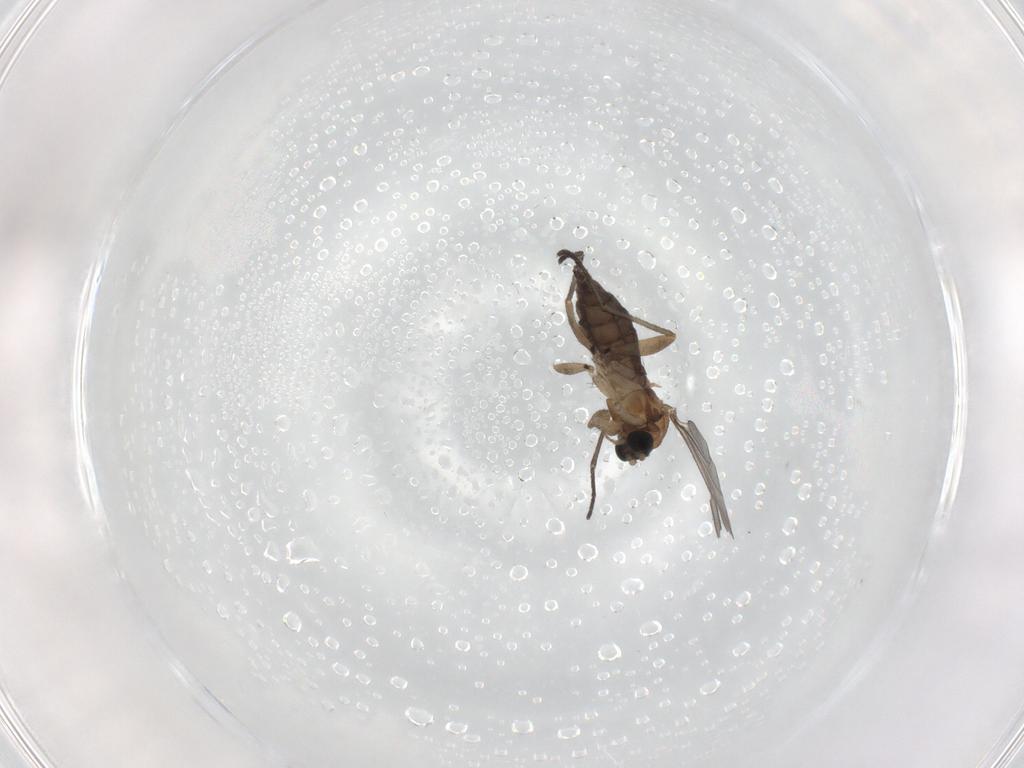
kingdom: Animalia
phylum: Arthropoda
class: Insecta
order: Diptera
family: Sciaridae
